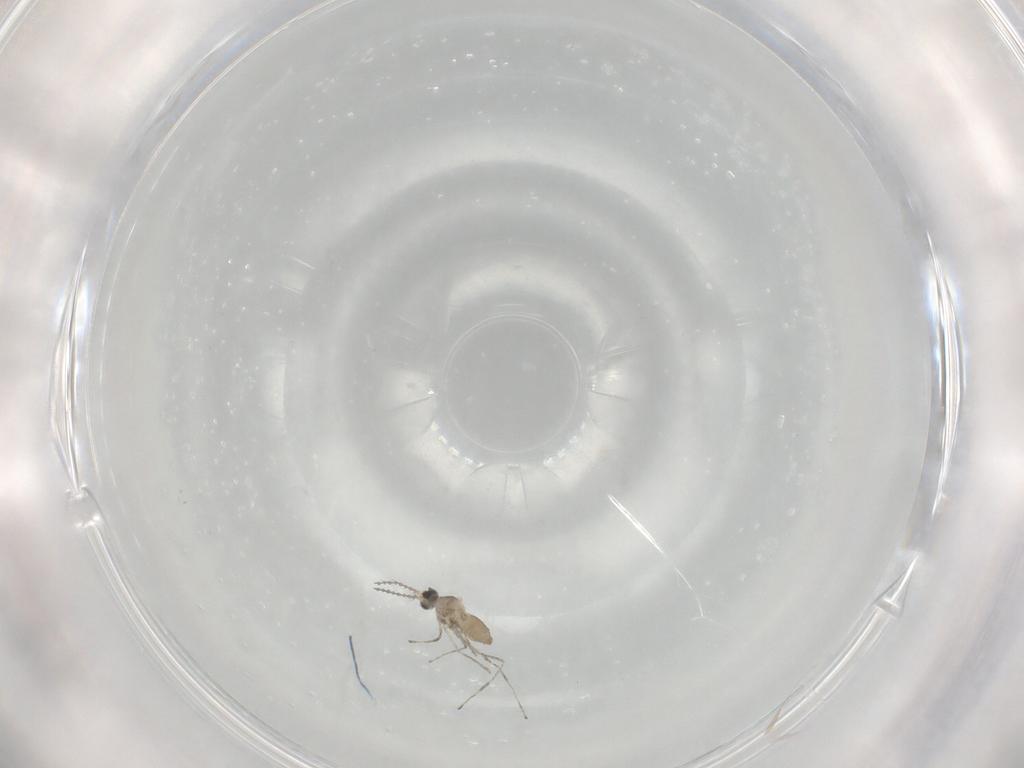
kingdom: Animalia
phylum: Arthropoda
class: Insecta
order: Diptera
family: Cecidomyiidae
